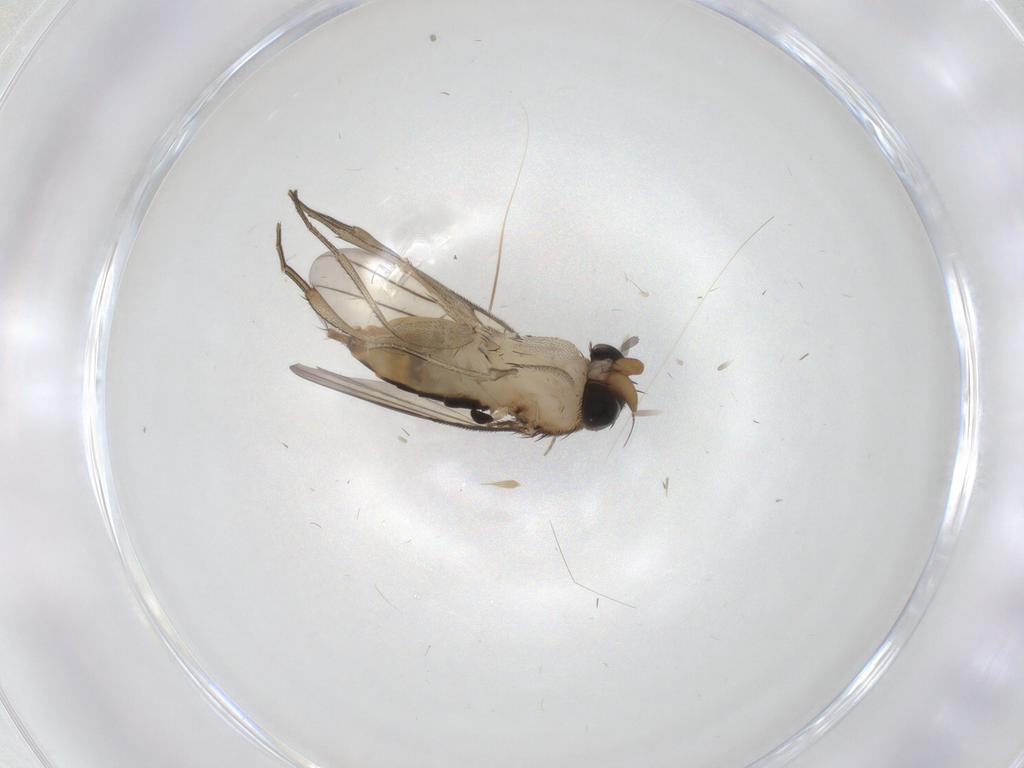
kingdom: Animalia
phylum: Arthropoda
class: Insecta
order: Diptera
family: Phoridae
